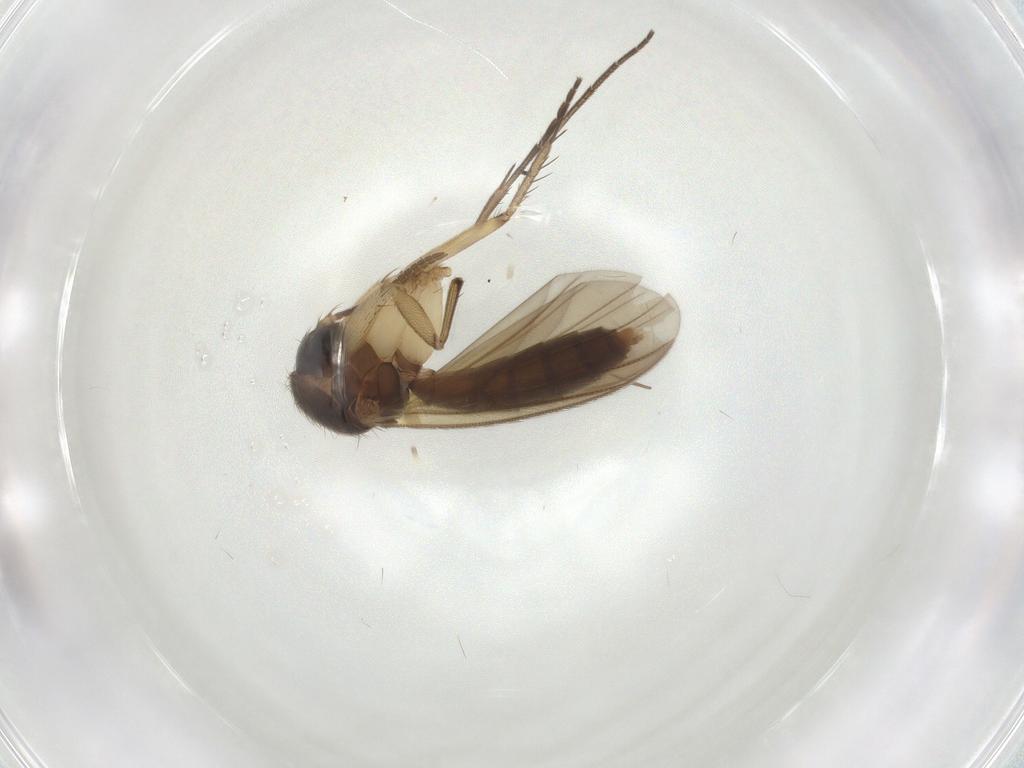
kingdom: Animalia
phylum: Arthropoda
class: Insecta
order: Diptera
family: Mycetophilidae
